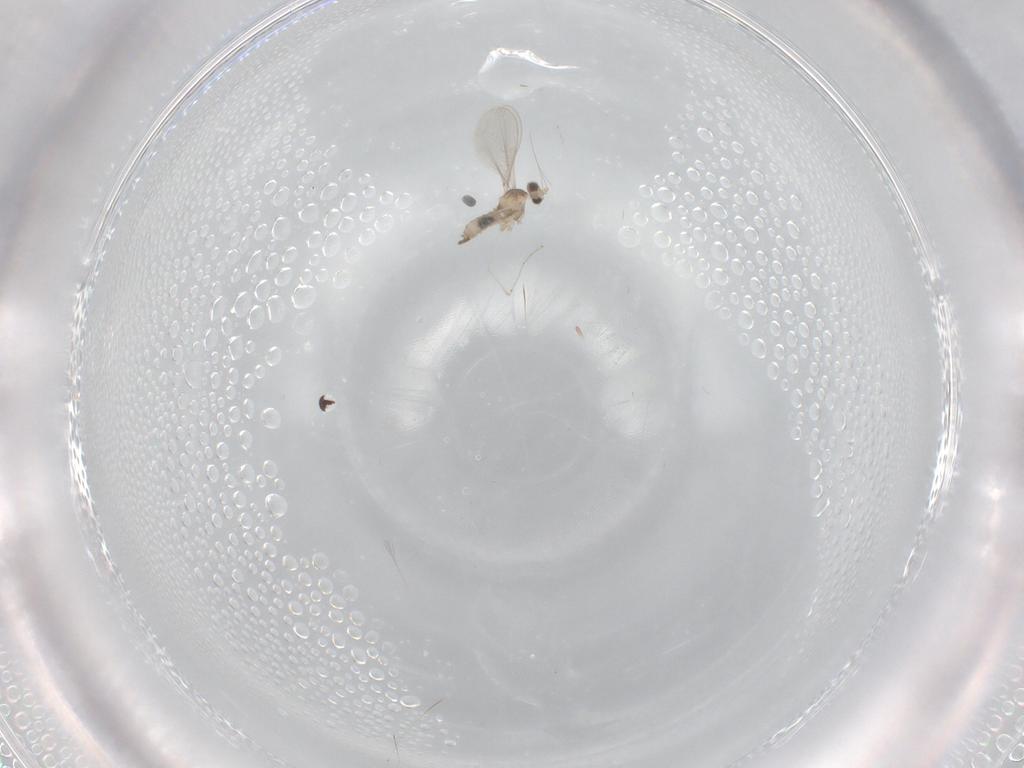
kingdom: Animalia
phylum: Arthropoda
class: Insecta
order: Diptera
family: Cecidomyiidae
